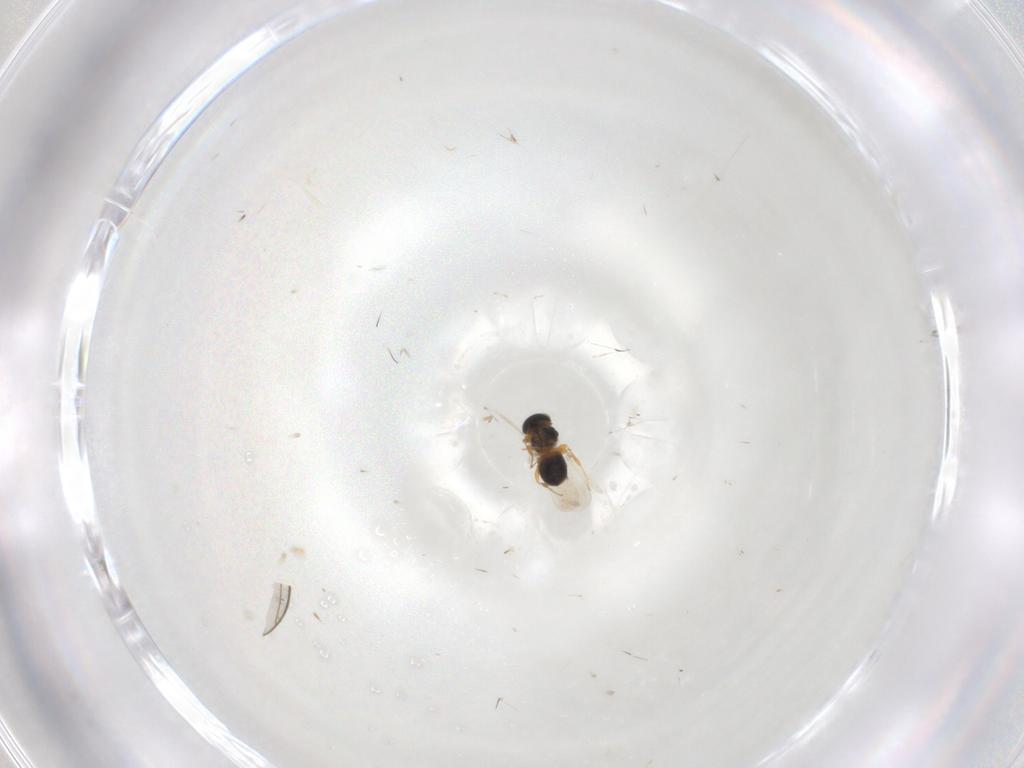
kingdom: Animalia
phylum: Arthropoda
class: Insecta
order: Hymenoptera
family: Platygastridae
